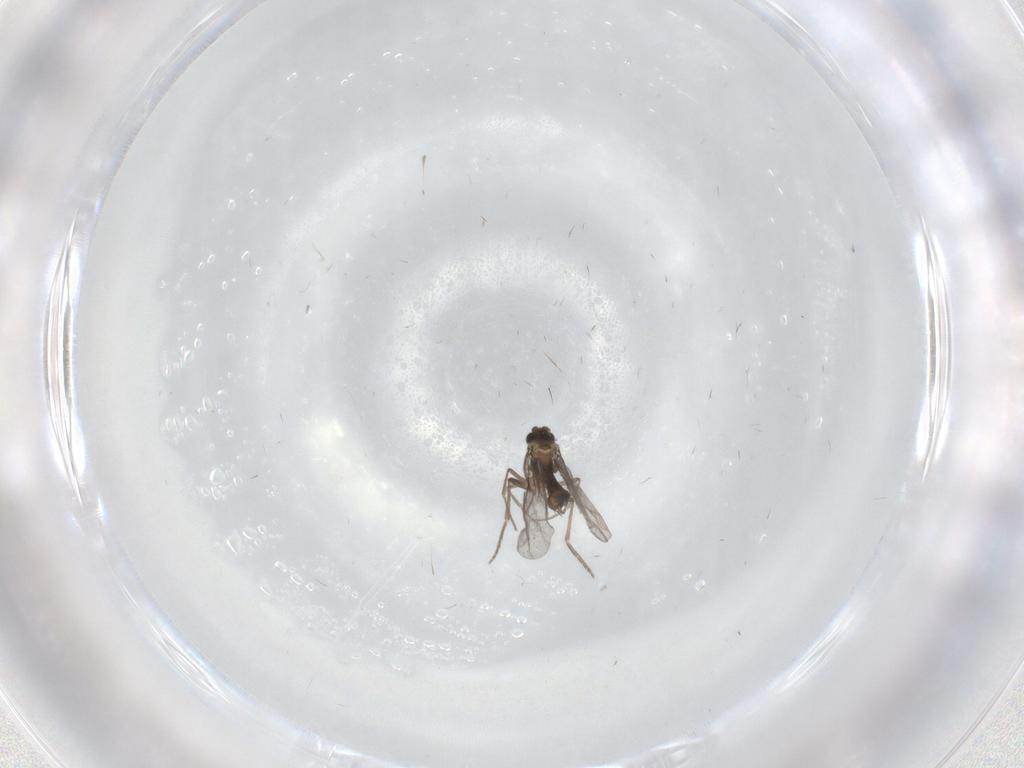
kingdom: Animalia
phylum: Arthropoda
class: Insecta
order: Diptera
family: Phoridae
